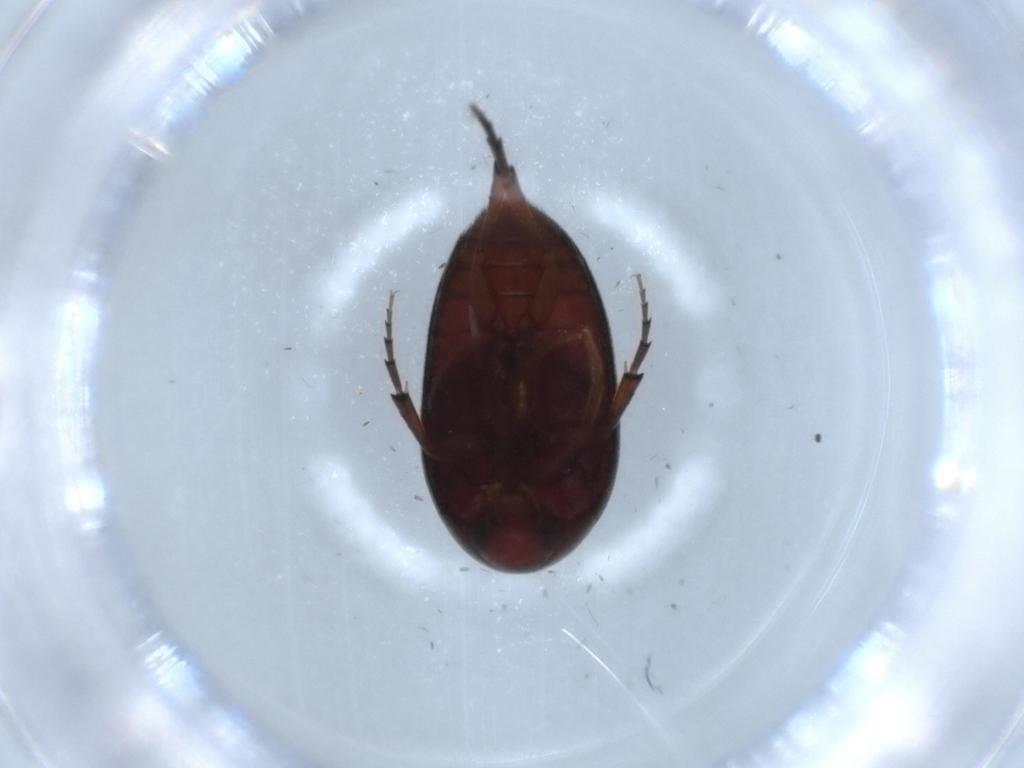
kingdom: Animalia
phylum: Arthropoda
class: Insecta
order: Coleoptera
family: Eucinetidae
